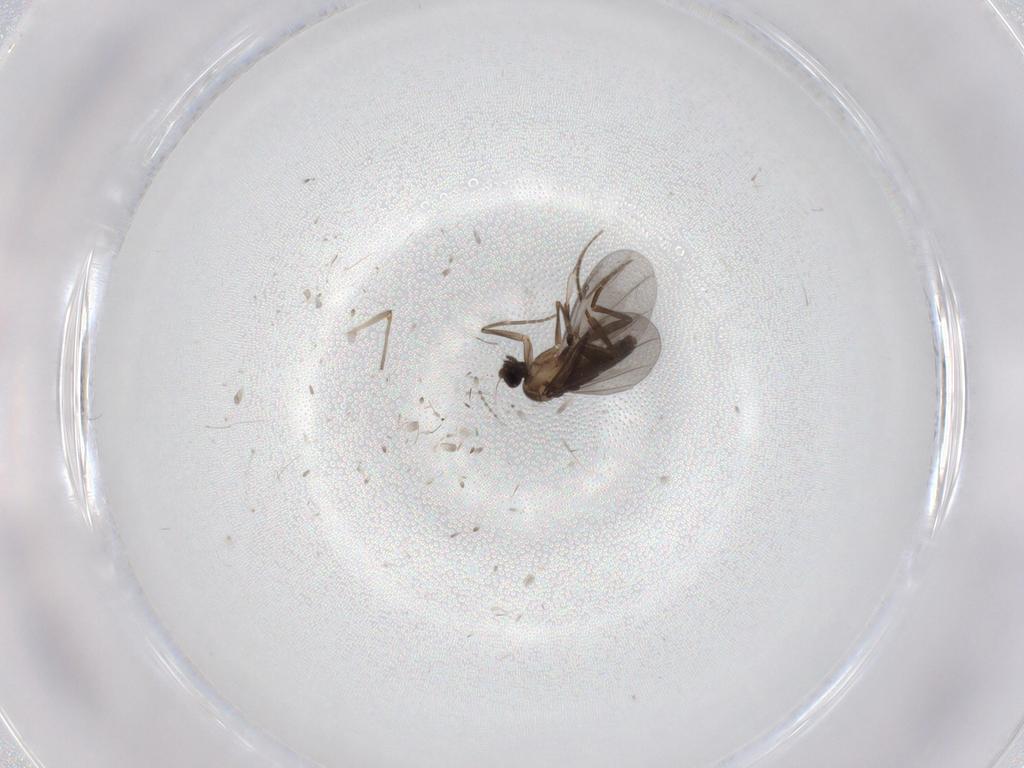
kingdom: Animalia
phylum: Arthropoda
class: Insecta
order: Diptera
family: Phoridae
